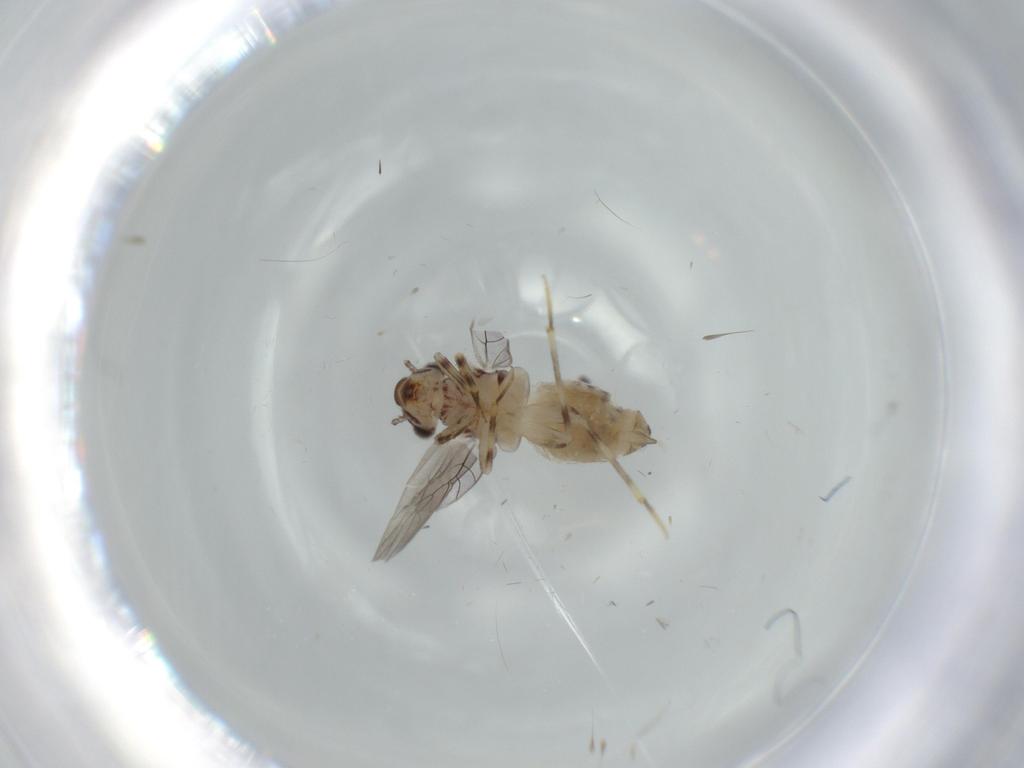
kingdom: Animalia
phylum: Arthropoda
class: Insecta
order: Psocodea
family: Lepidopsocidae
